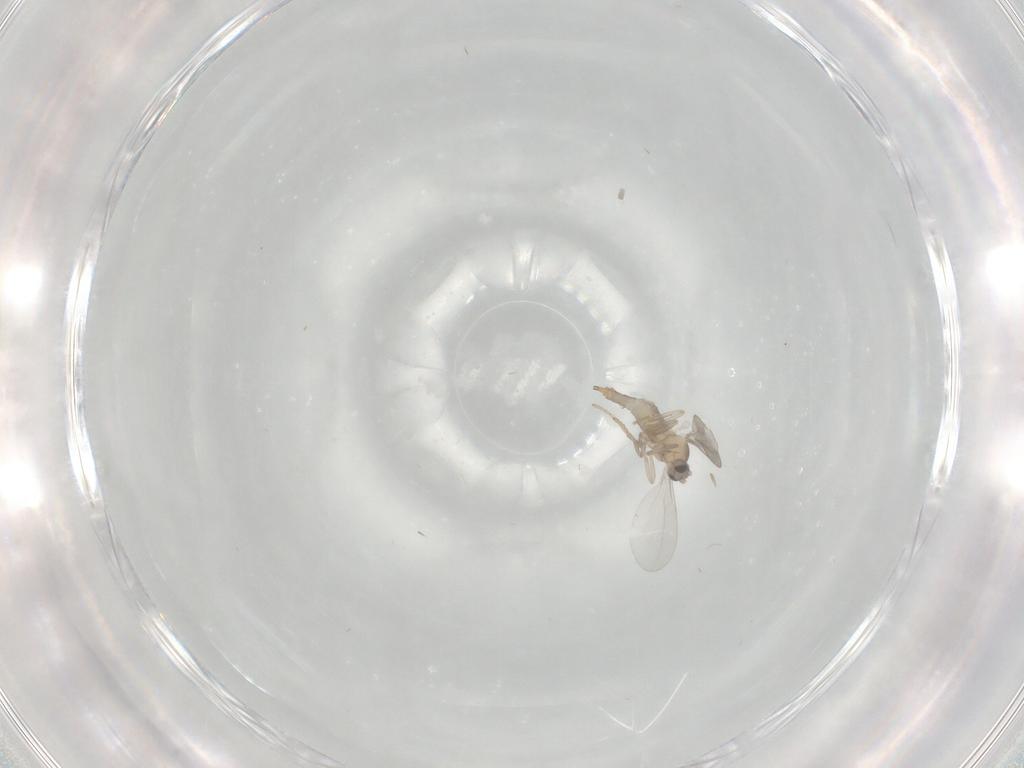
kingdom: Animalia
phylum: Arthropoda
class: Insecta
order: Diptera
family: Cecidomyiidae
